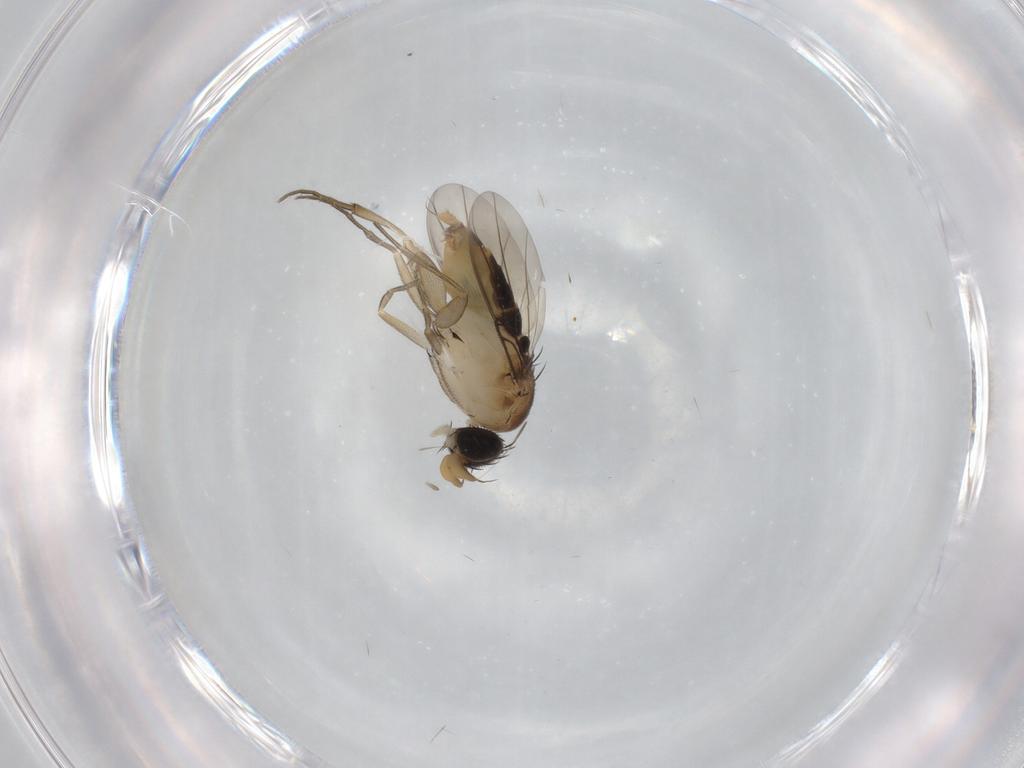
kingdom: Animalia
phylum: Arthropoda
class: Insecta
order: Diptera
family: Phoridae
